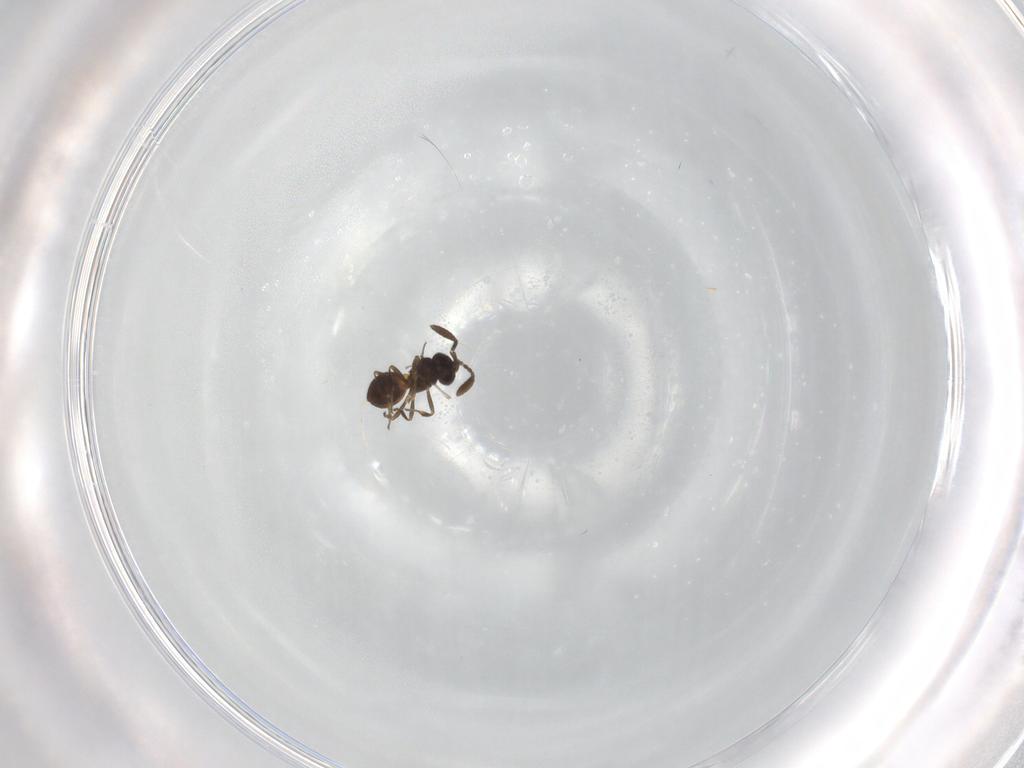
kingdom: Animalia
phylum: Arthropoda
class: Insecta
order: Hymenoptera
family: Scelionidae
